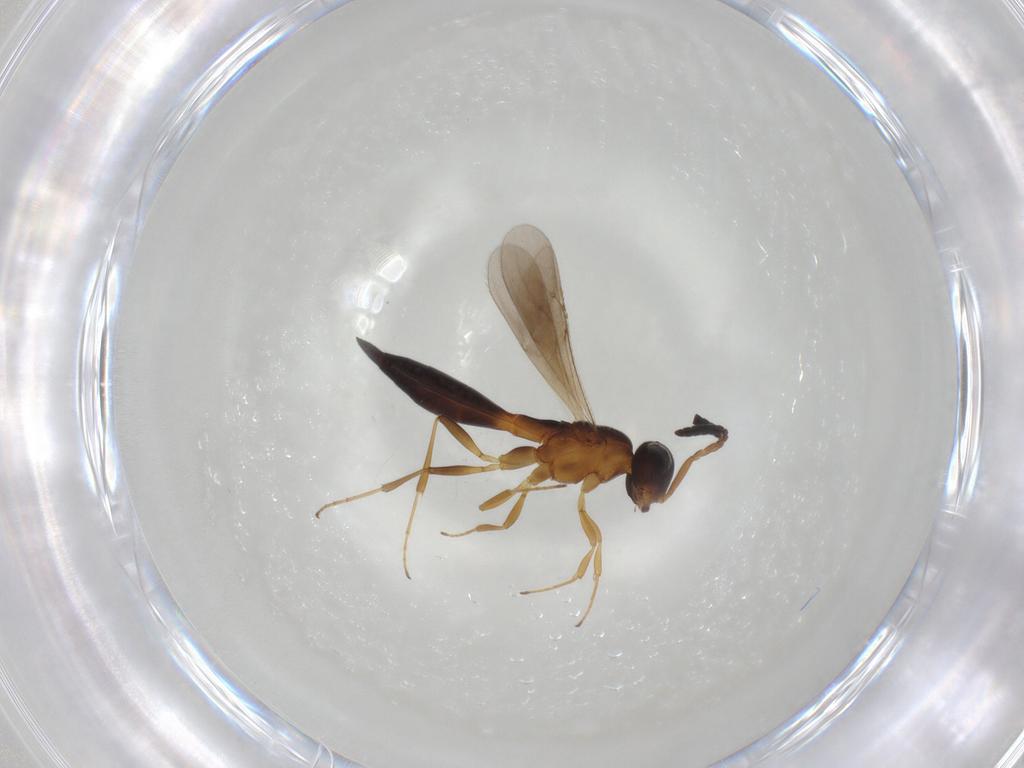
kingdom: Animalia
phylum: Arthropoda
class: Insecta
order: Hymenoptera
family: Scelionidae
